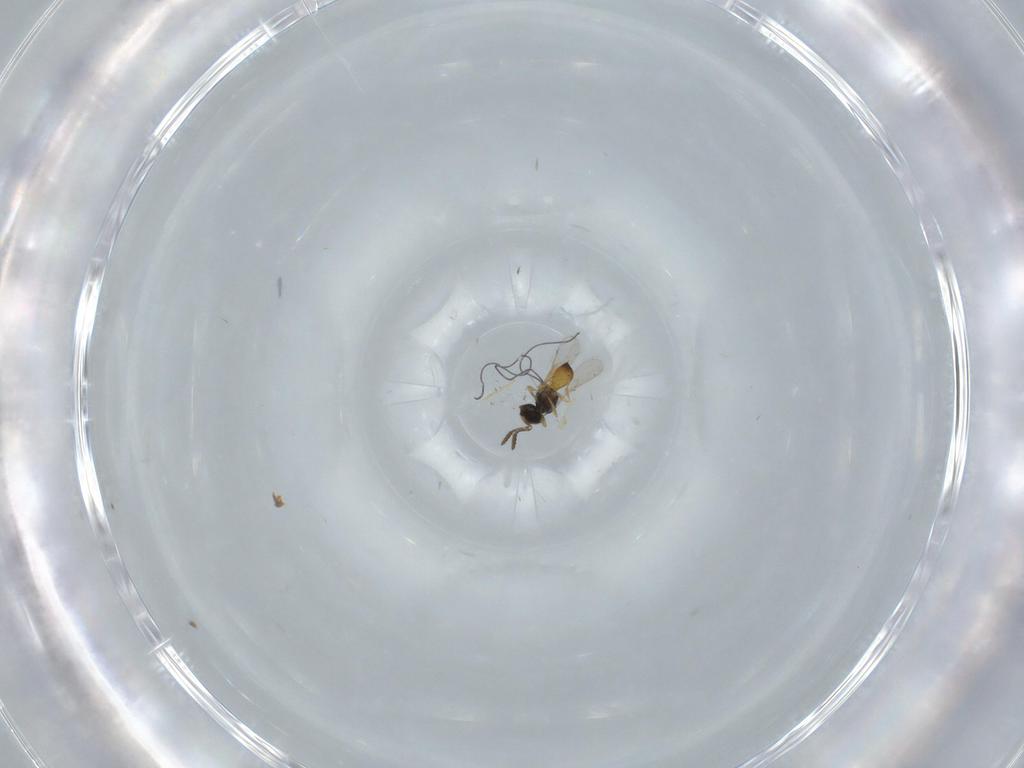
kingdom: Animalia
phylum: Arthropoda
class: Insecta
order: Hymenoptera
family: Scelionidae
